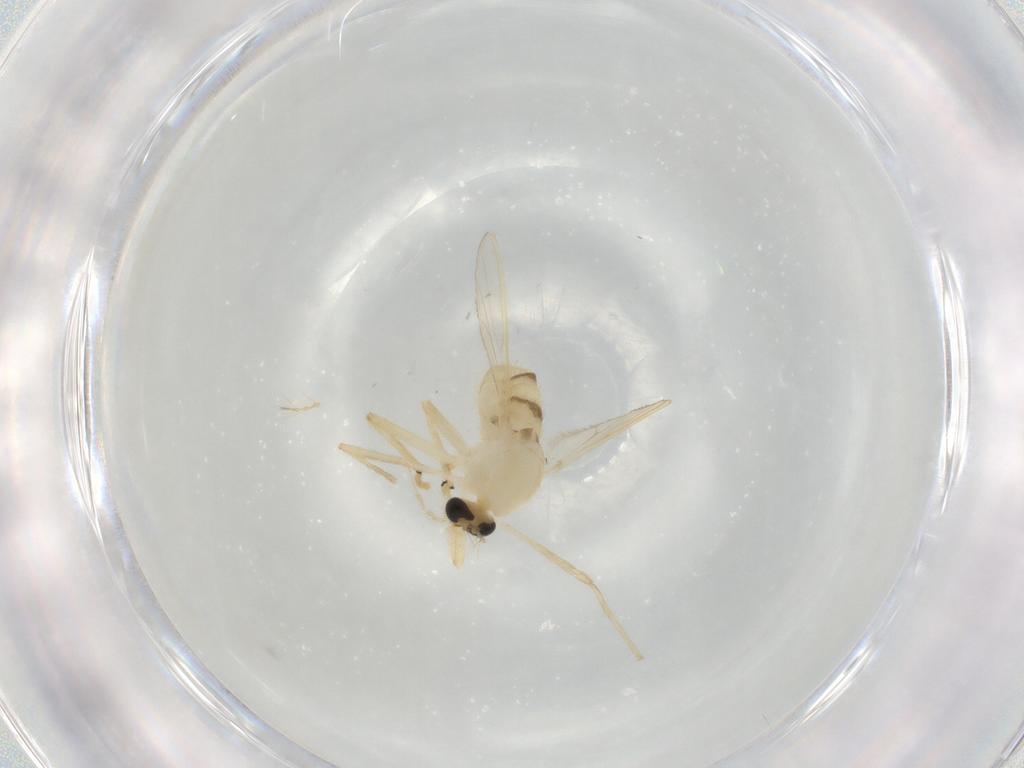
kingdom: Animalia
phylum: Arthropoda
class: Insecta
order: Diptera
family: Chironomidae
